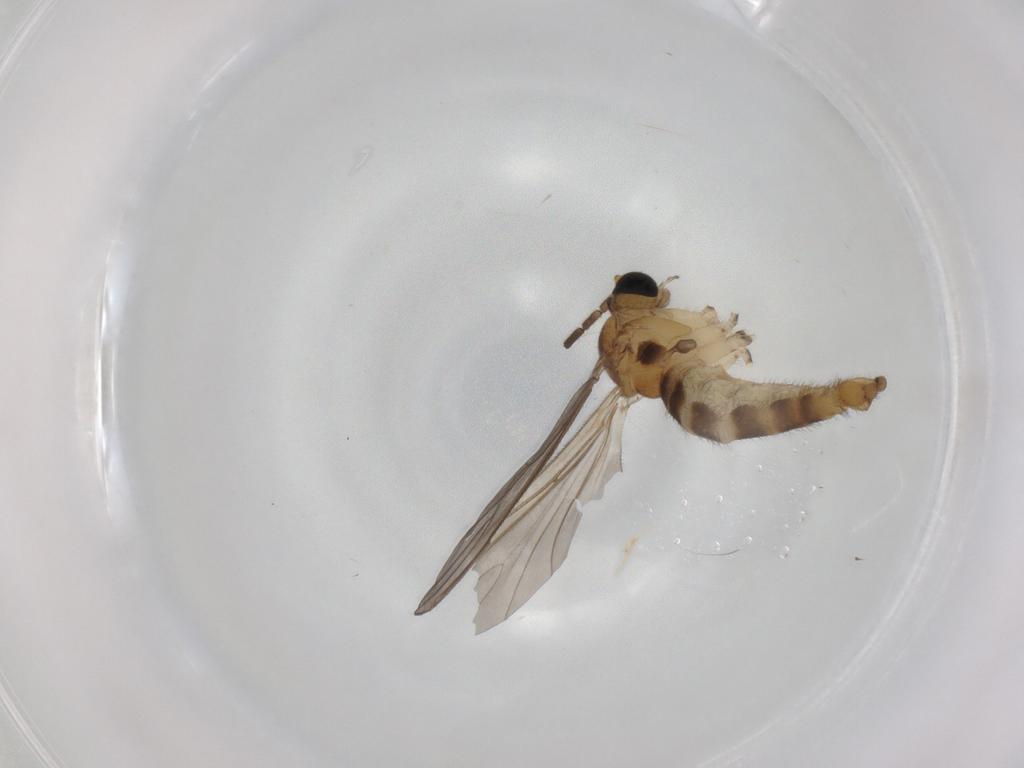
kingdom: Animalia
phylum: Arthropoda
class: Insecta
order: Diptera
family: Sciaridae
